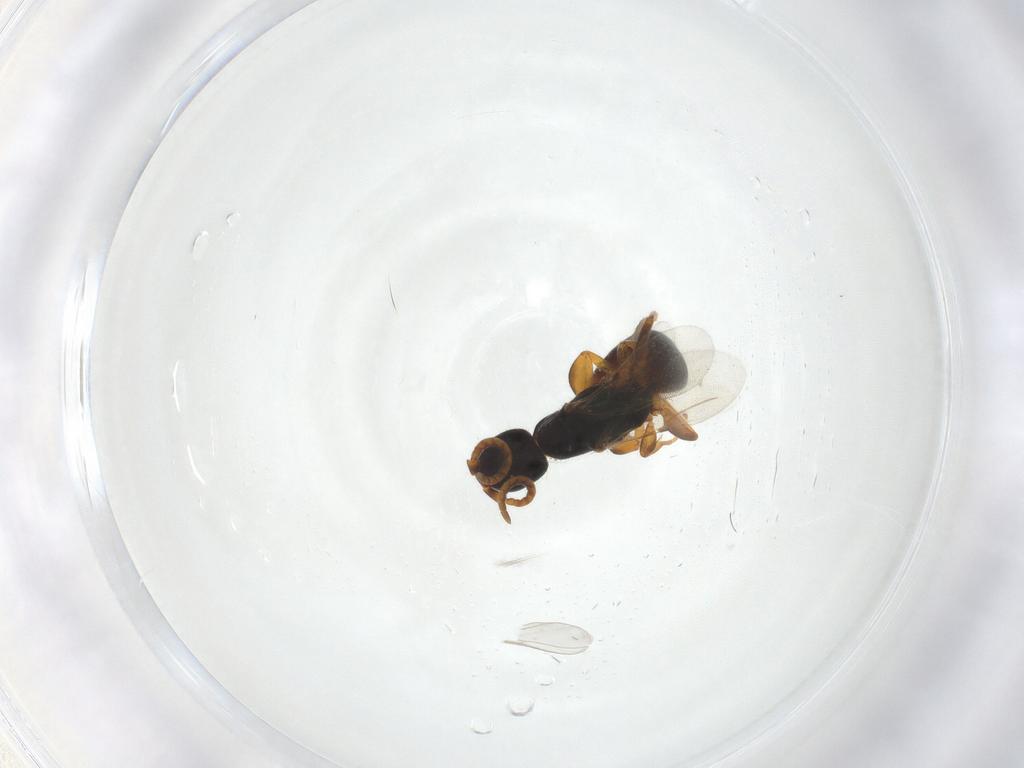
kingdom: Animalia
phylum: Arthropoda
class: Insecta
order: Hymenoptera
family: Bethylidae
